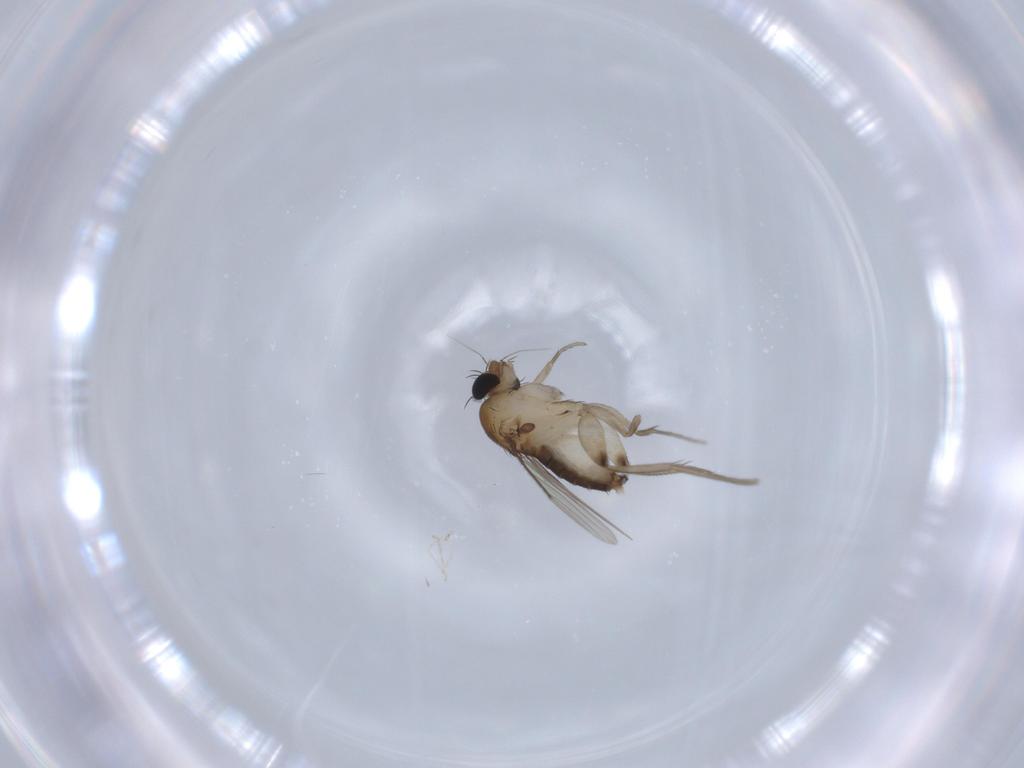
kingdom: Animalia
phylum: Arthropoda
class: Insecta
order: Diptera
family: Phoridae
